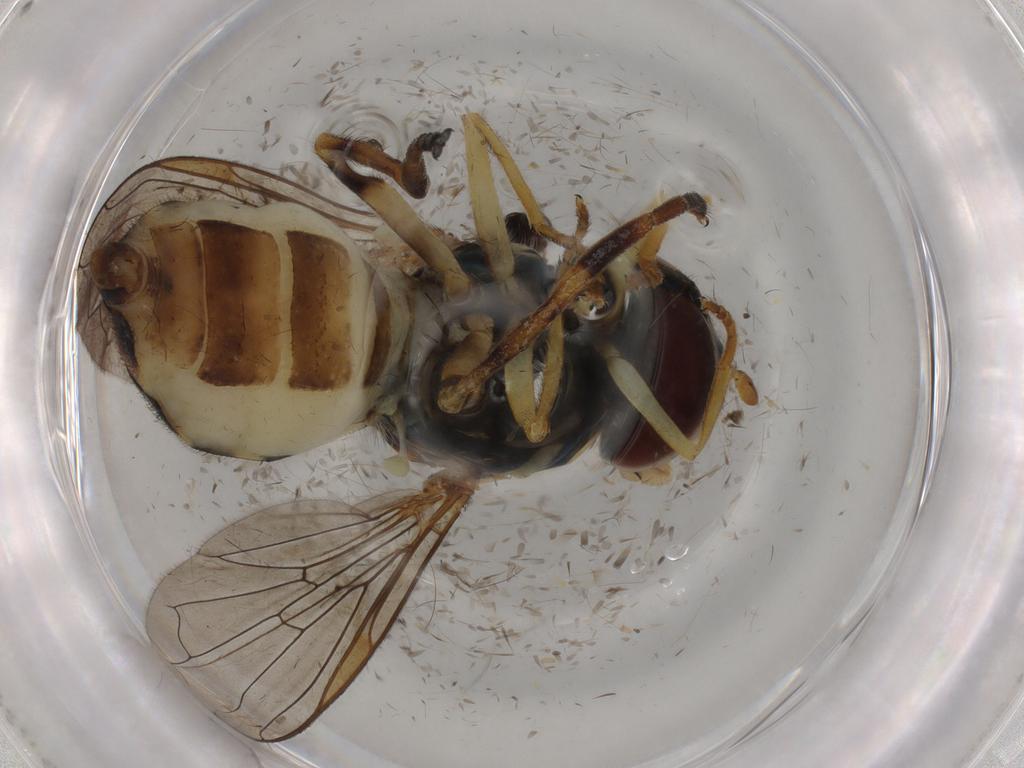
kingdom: Animalia
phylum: Arthropoda
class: Insecta
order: Diptera
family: Syrphidae
